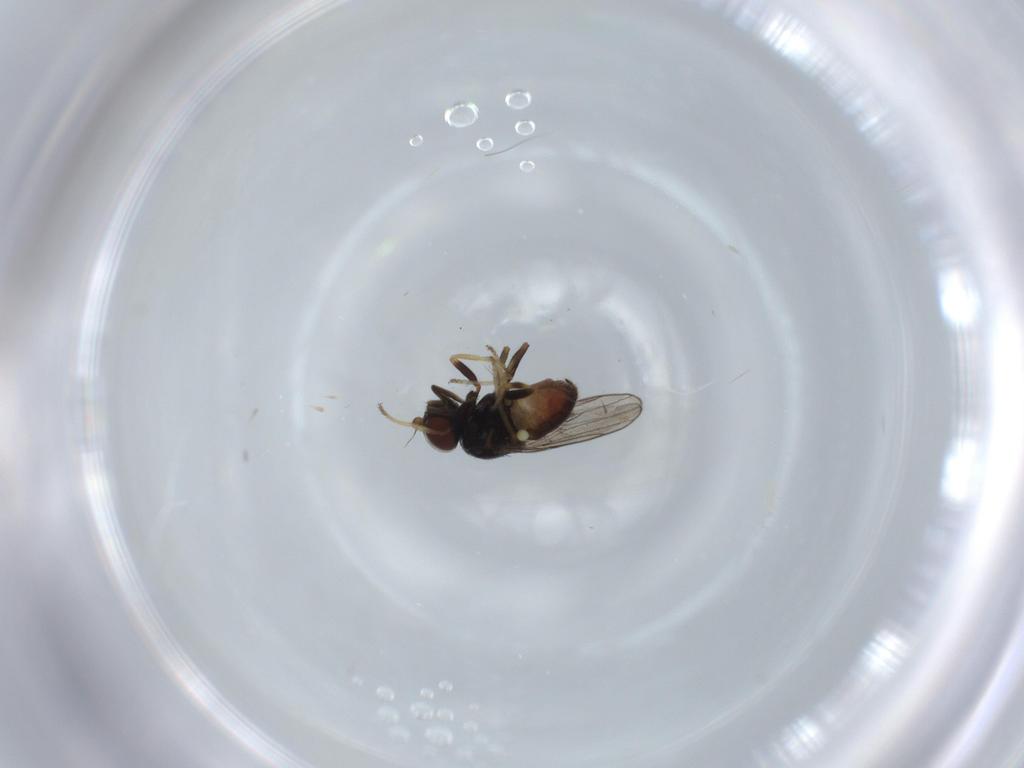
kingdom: Animalia
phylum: Arthropoda
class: Insecta
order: Diptera
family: Chloropidae
